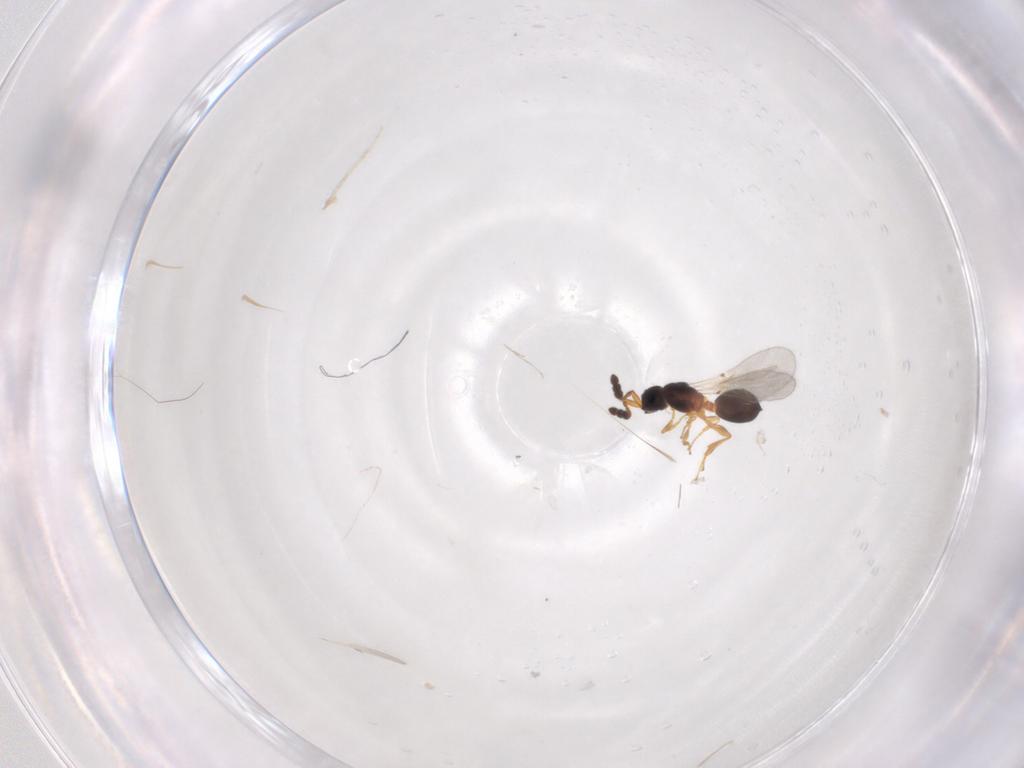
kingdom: Animalia
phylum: Arthropoda
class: Insecta
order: Hymenoptera
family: Diapriidae
